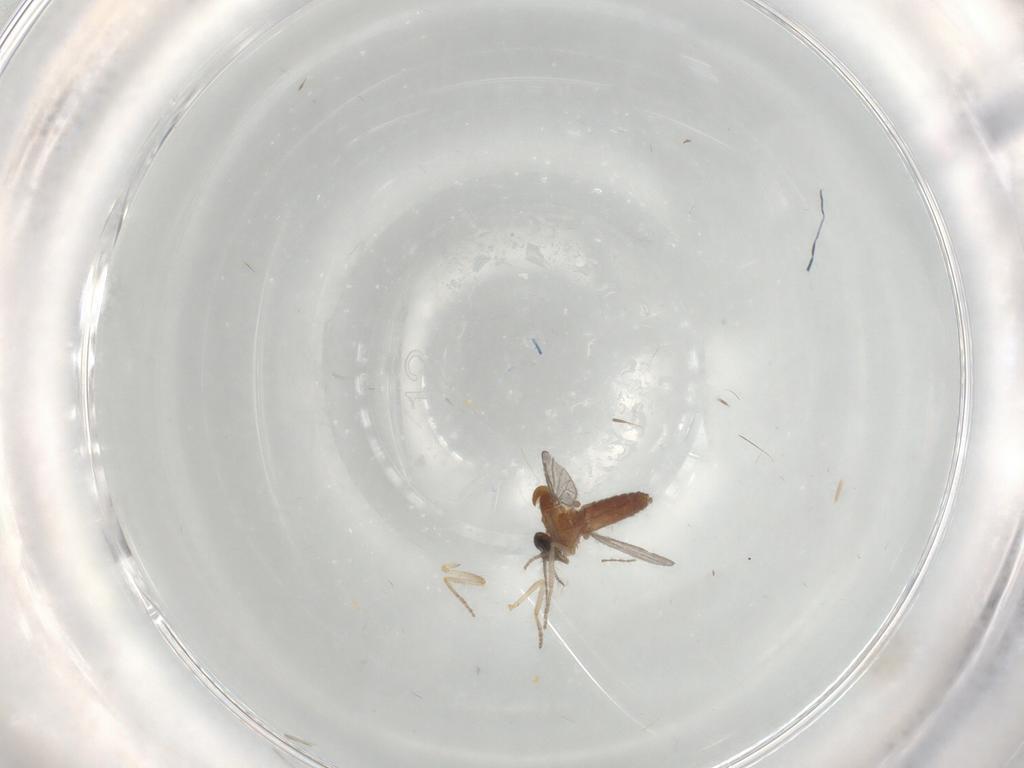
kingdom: Animalia
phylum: Arthropoda
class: Insecta
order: Diptera
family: Ceratopogonidae
